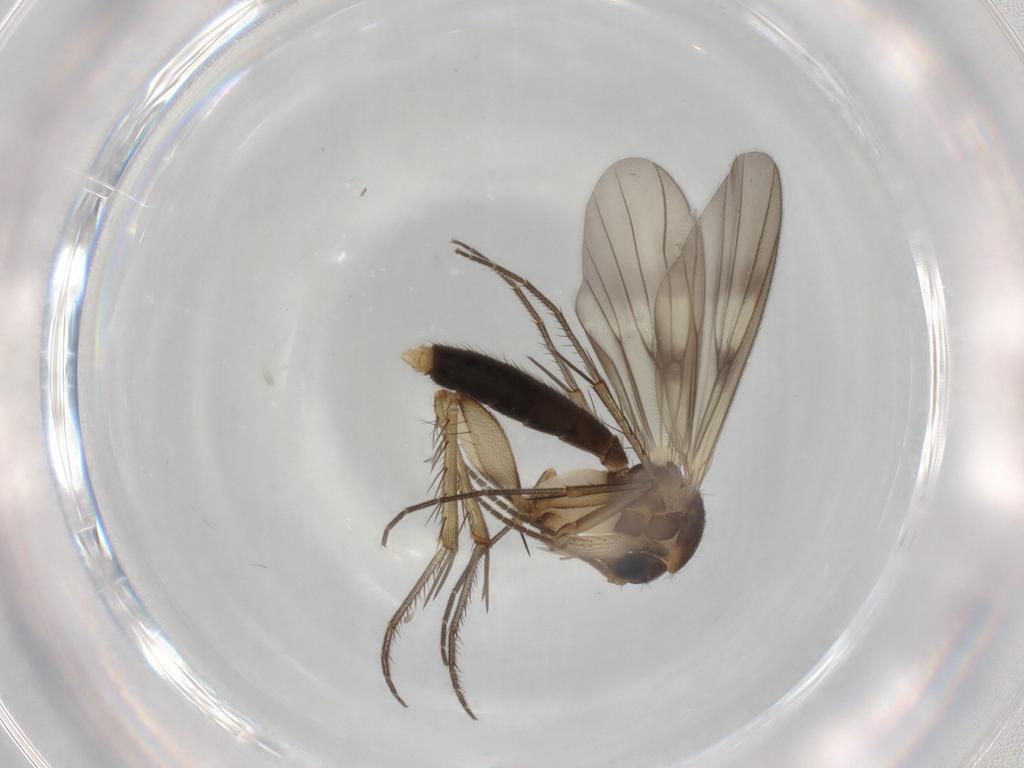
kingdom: Animalia
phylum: Arthropoda
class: Insecta
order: Diptera
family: Mycetophilidae
